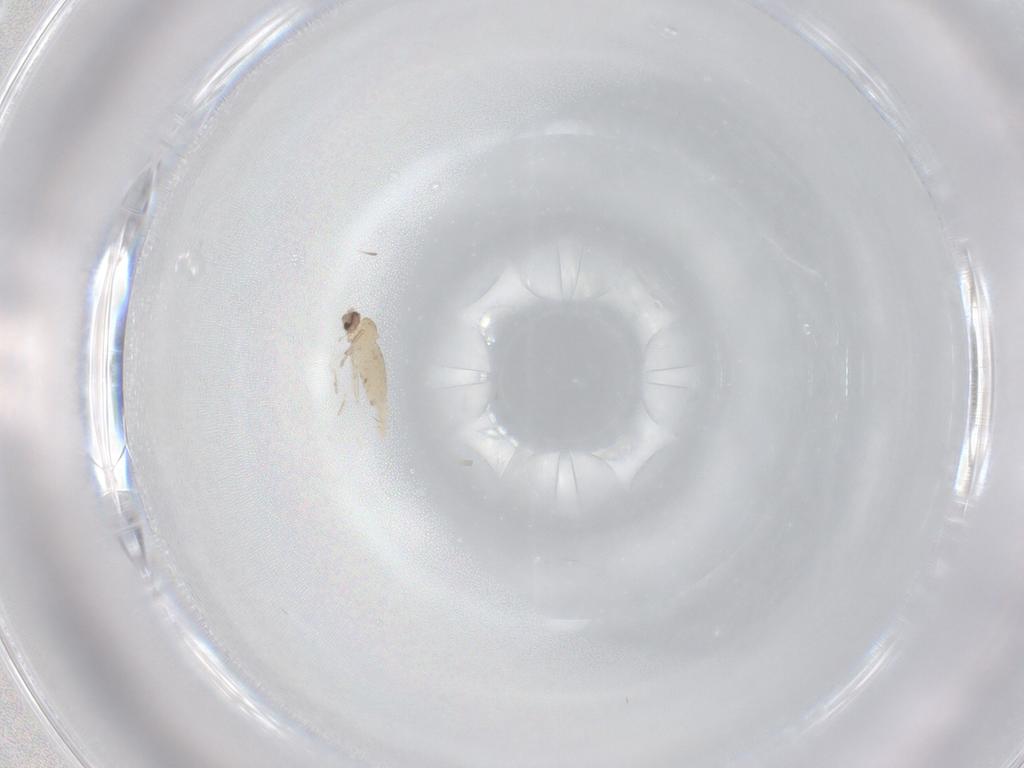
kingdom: Animalia
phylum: Arthropoda
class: Insecta
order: Diptera
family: Cecidomyiidae
